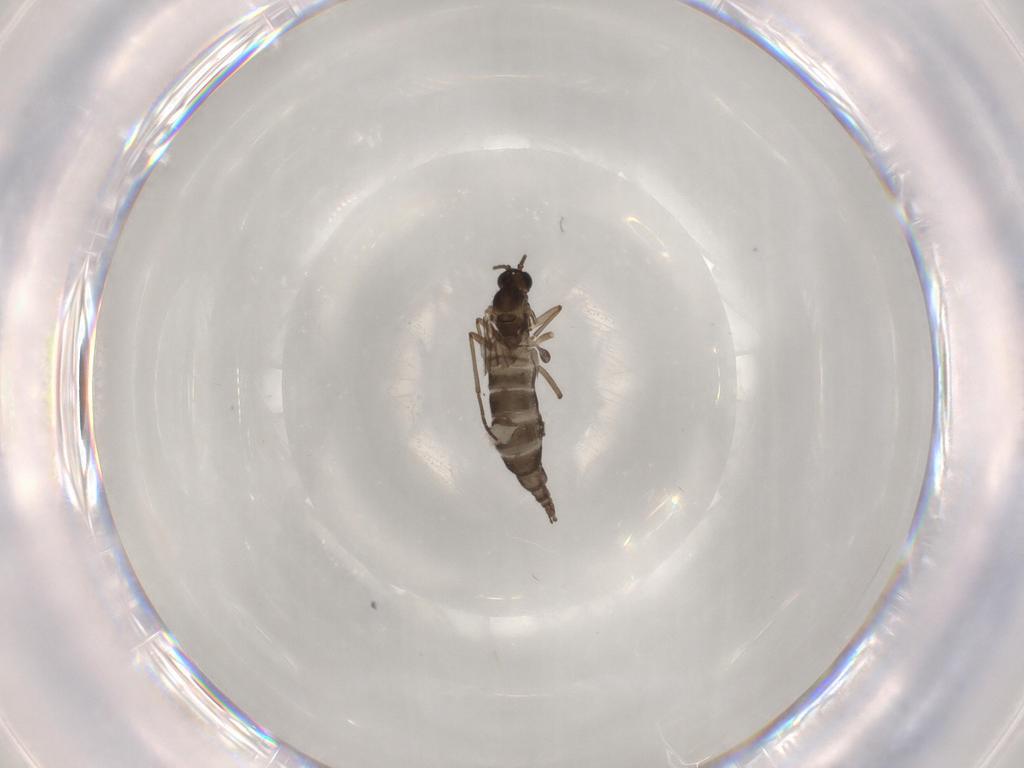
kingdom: Animalia
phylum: Arthropoda
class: Insecta
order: Diptera
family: Sciaridae
